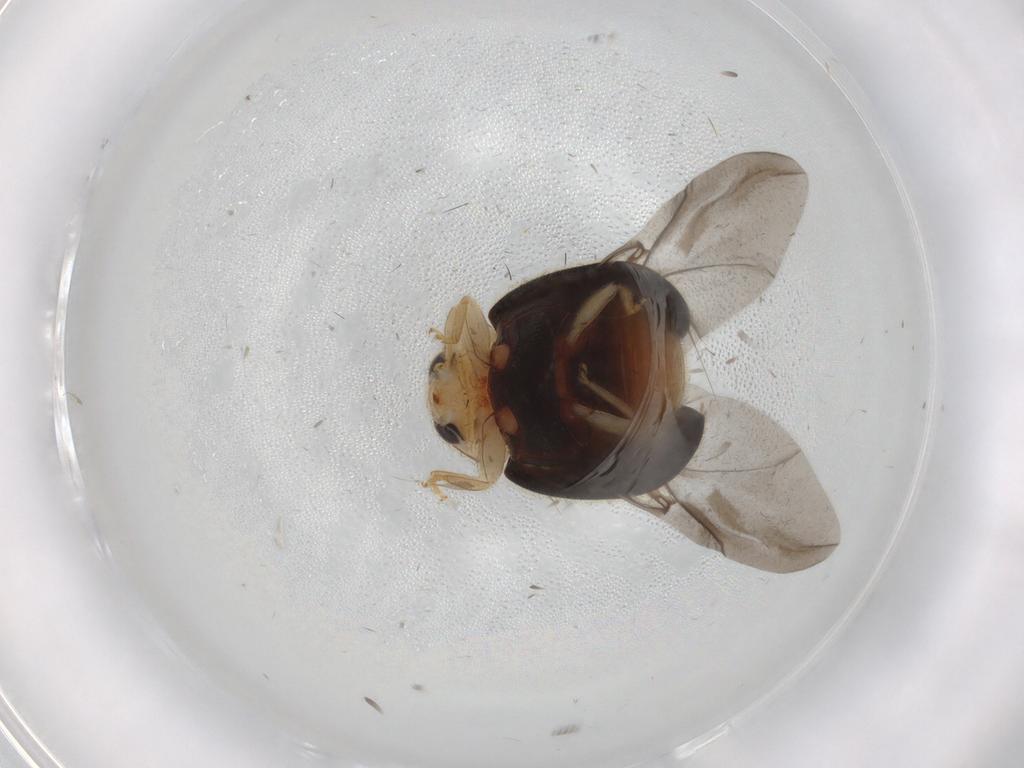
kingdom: Animalia
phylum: Arthropoda
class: Insecta
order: Coleoptera
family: Coccinellidae
